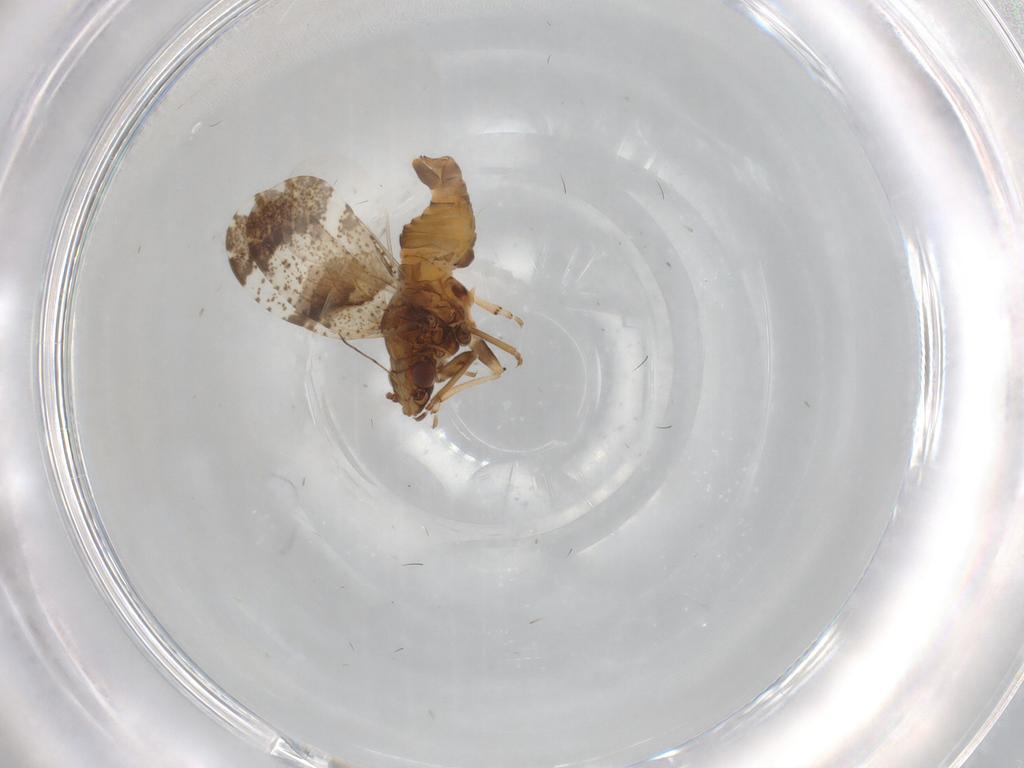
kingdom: Animalia
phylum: Arthropoda
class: Insecta
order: Hemiptera
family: Psyllidae
